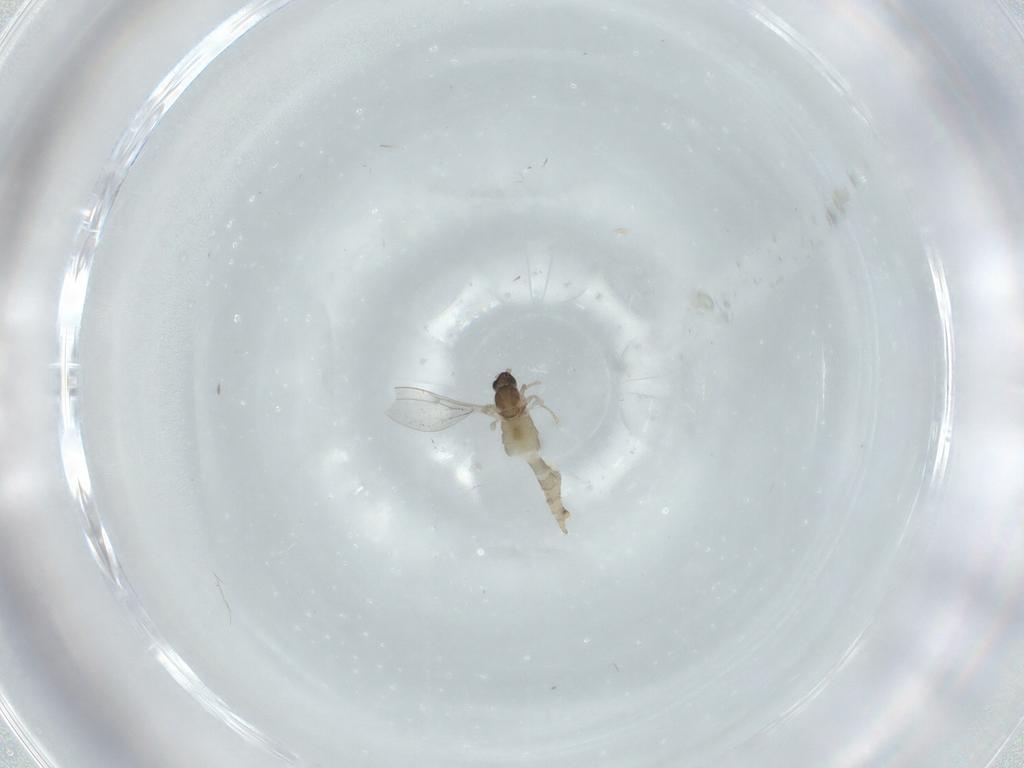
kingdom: Animalia
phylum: Arthropoda
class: Insecta
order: Diptera
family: Cecidomyiidae
